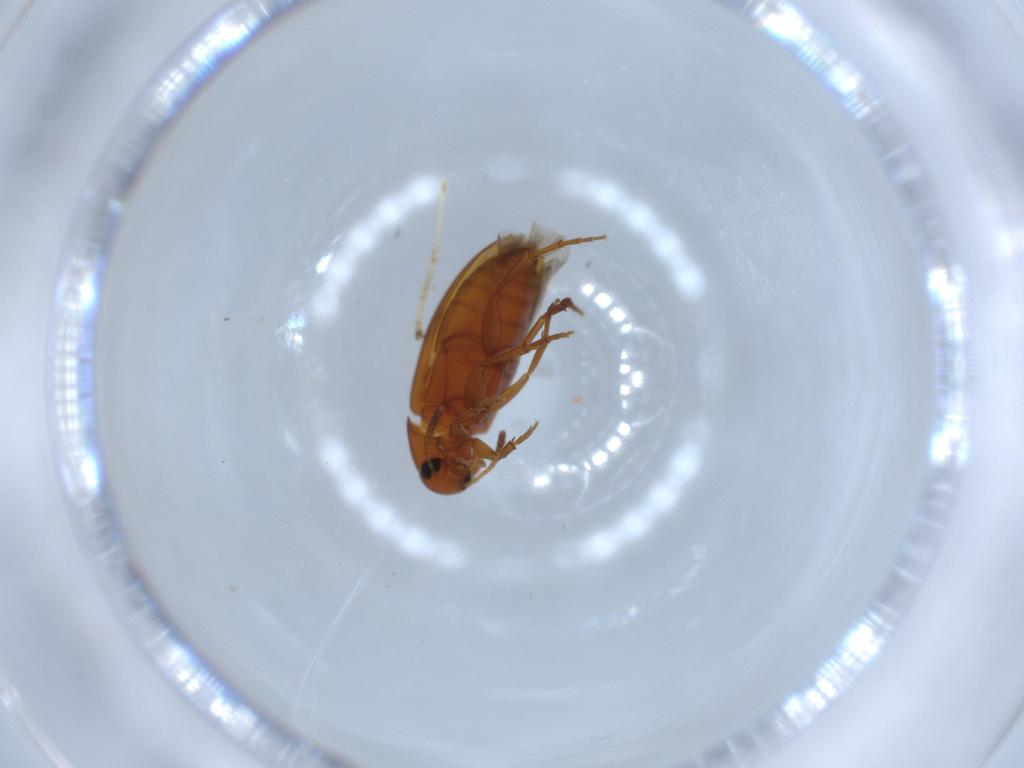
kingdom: Animalia
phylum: Arthropoda
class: Insecta
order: Coleoptera
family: Scraptiidae
